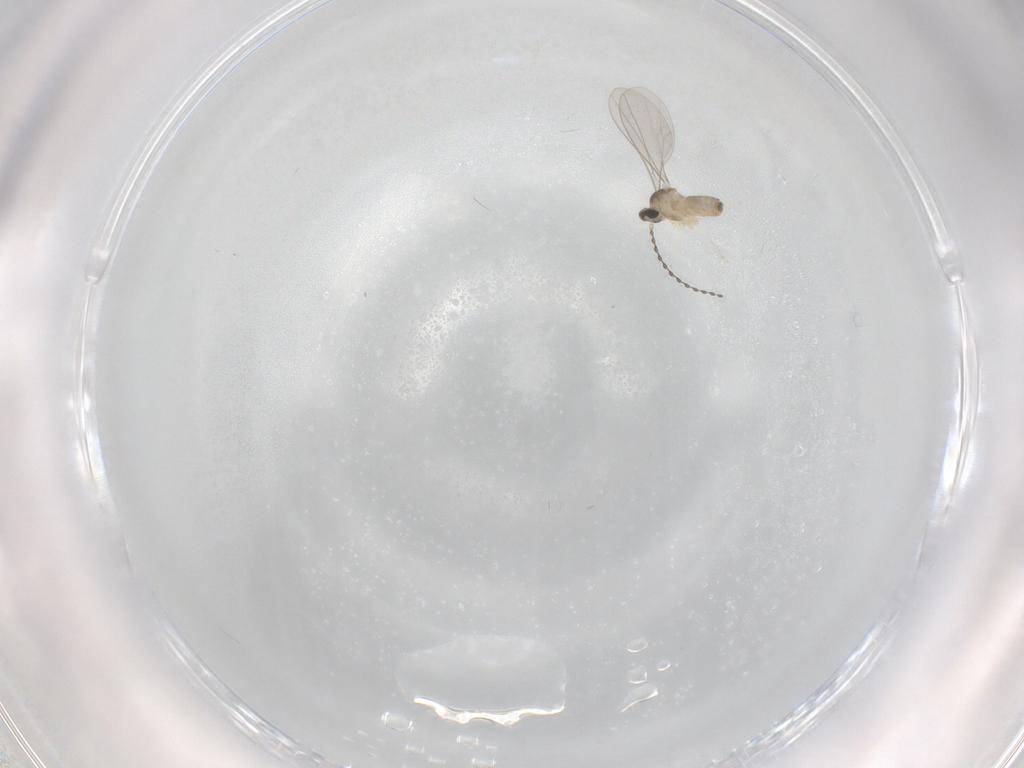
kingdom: Animalia
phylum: Arthropoda
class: Insecta
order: Diptera
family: Cecidomyiidae
